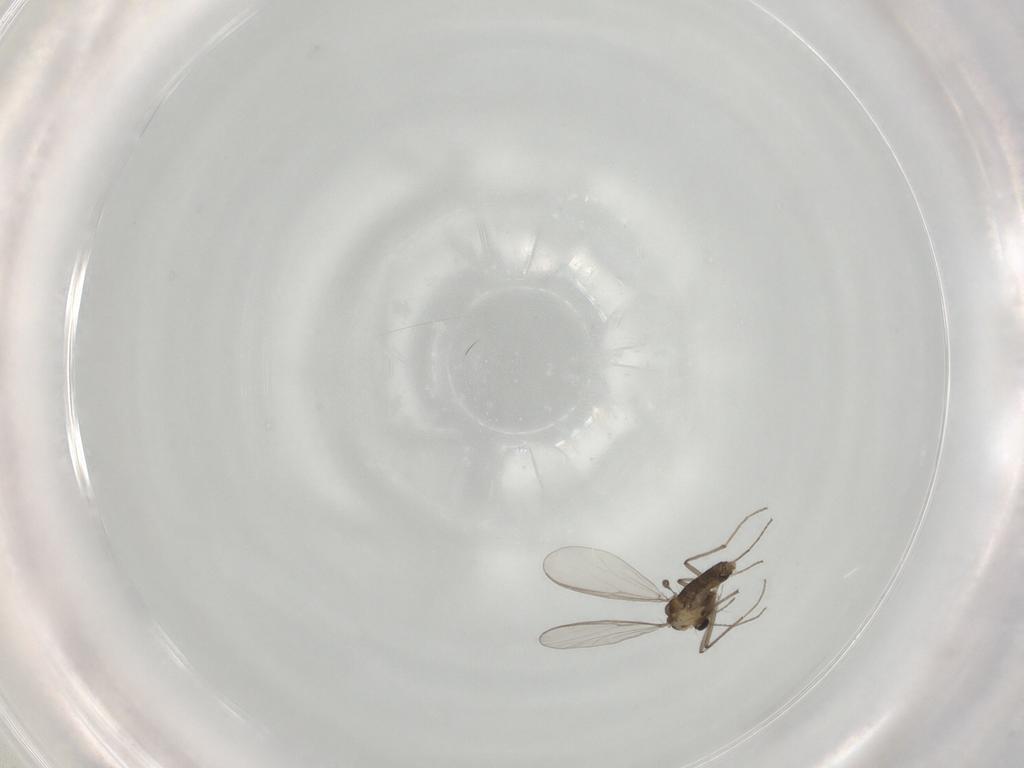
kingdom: Animalia
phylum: Arthropoda
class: Insecta
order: Diptera
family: Chironomidae
